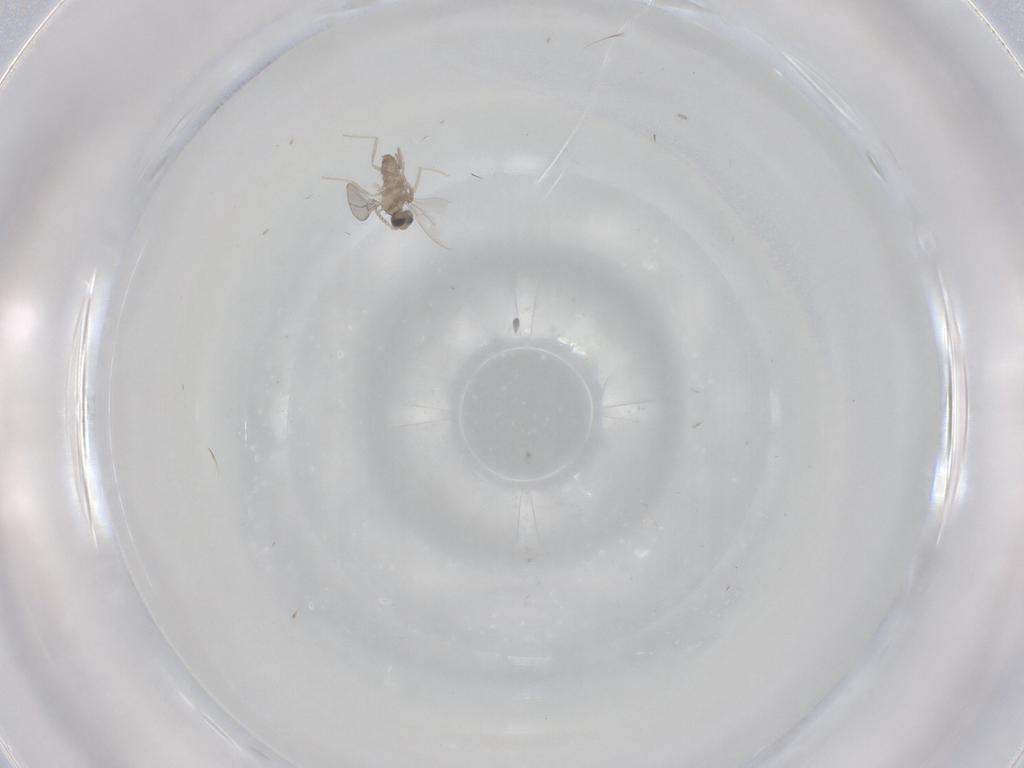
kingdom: Animalia
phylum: Arthropoda
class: Insecta
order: Diptera
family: Cecidomyiidae
